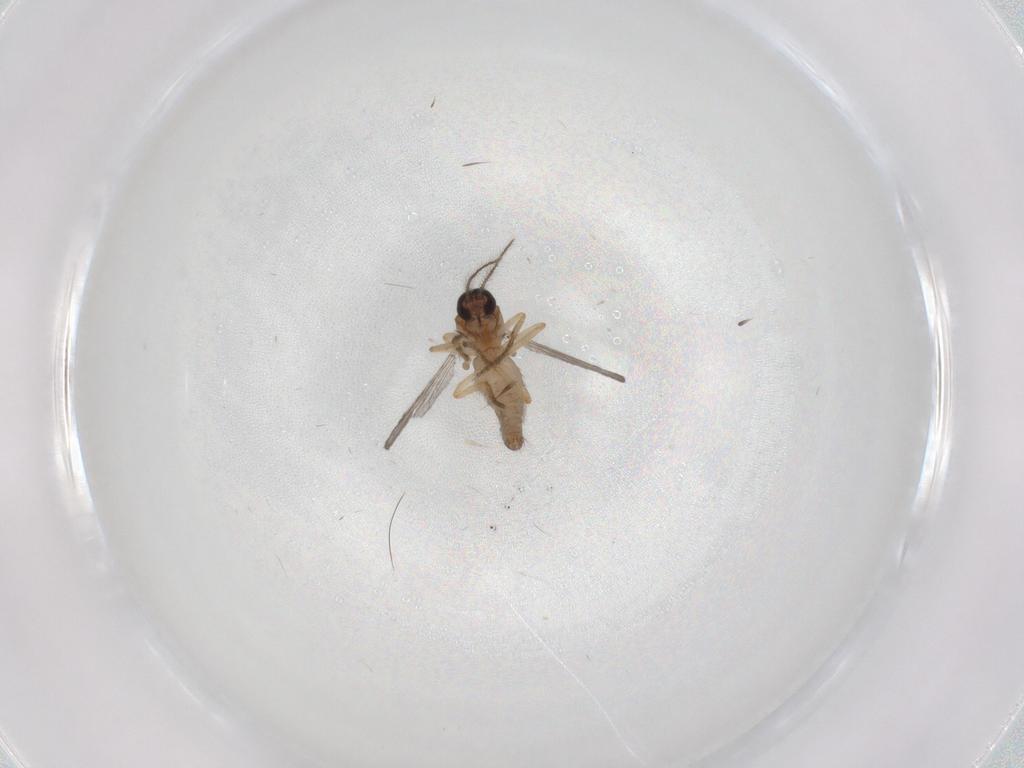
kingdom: Animalia
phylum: Arthropoda
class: Insecta
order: Diptera
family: Ceratopogonidae
